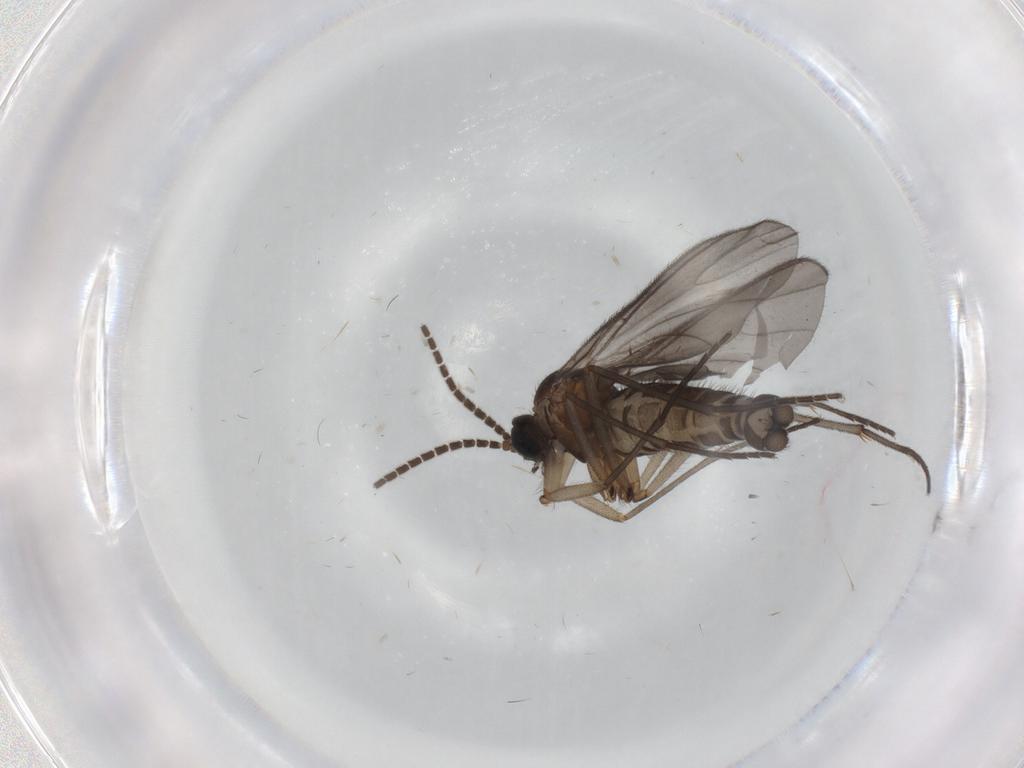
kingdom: Animalia
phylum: Arthropoda
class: Insecta
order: Diptera
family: Sciaridae
